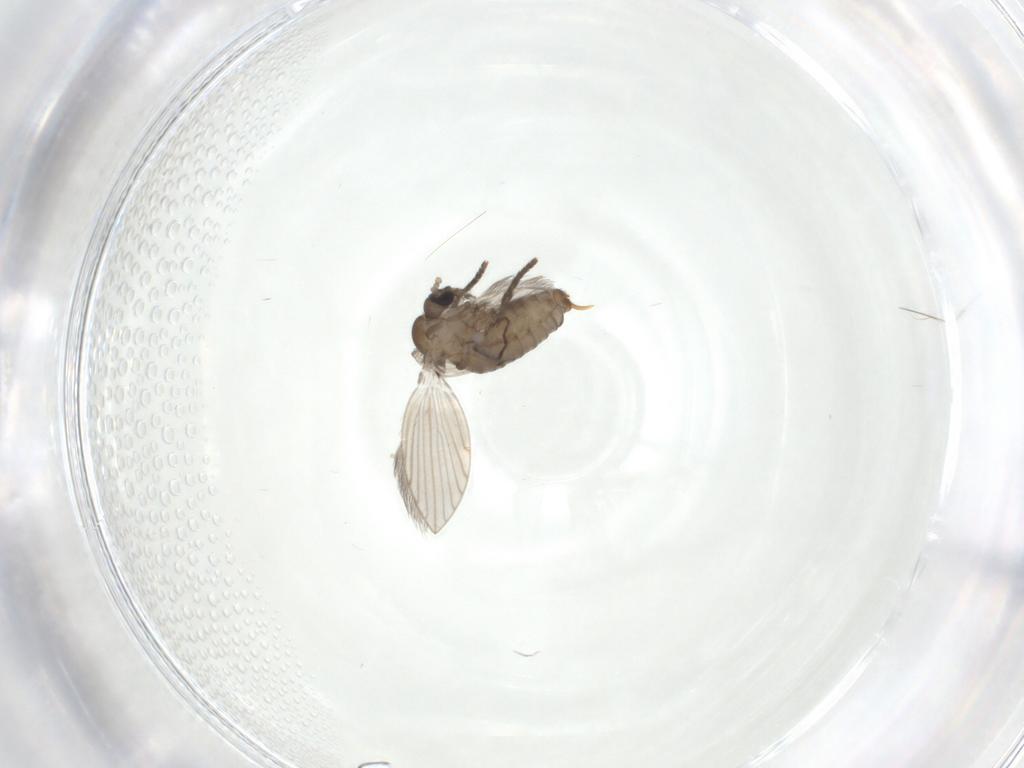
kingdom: Animalia
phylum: Arthropoda
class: Insecta
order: Diptera
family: Psychodidae
